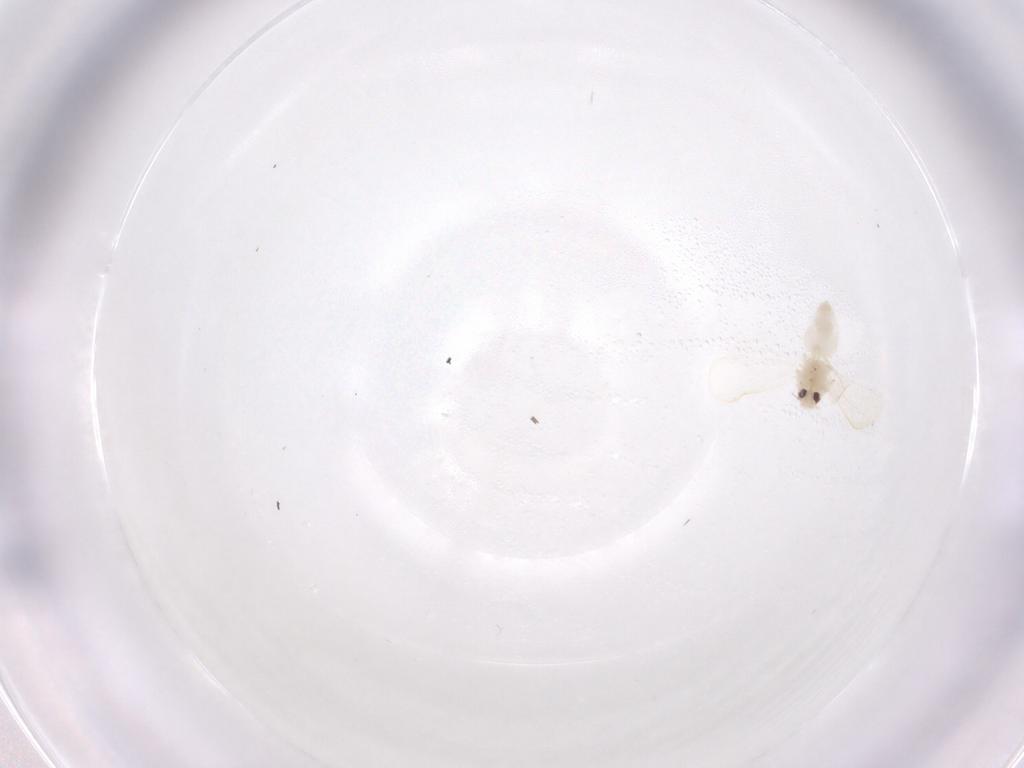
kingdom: Animalia
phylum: Arthropoda
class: Insecta
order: Hemiptera
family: Aleyrodidae
